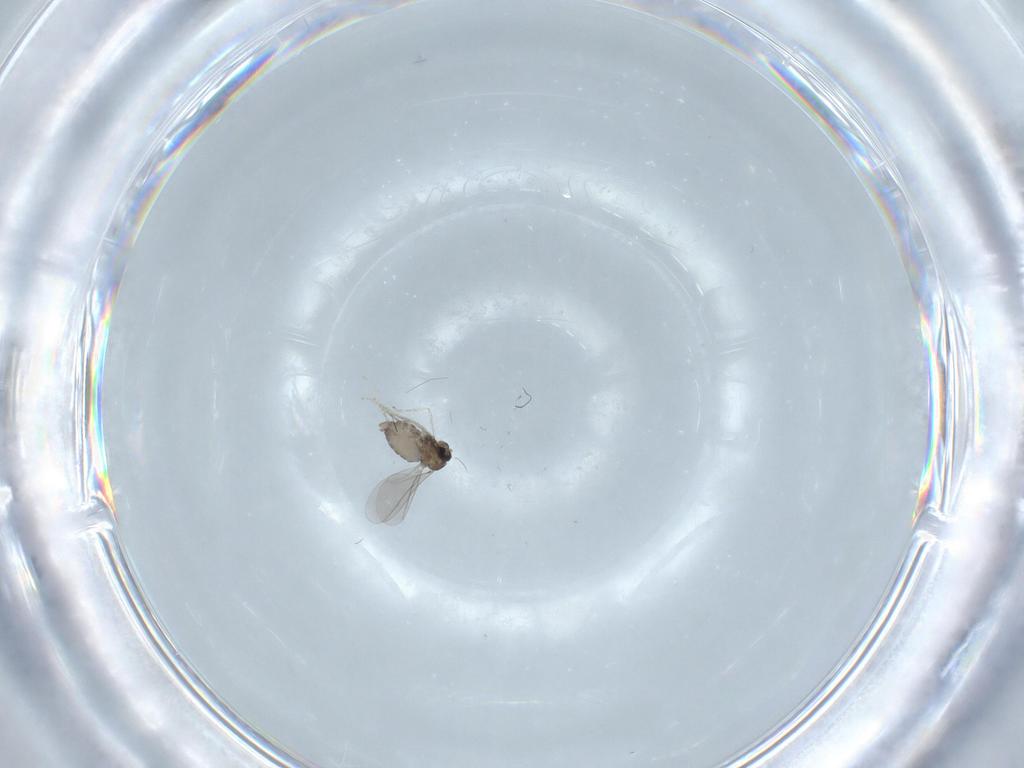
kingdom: Animalia
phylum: Arthropoda
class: Insecta
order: Diptera
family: Cecidomyiidae
